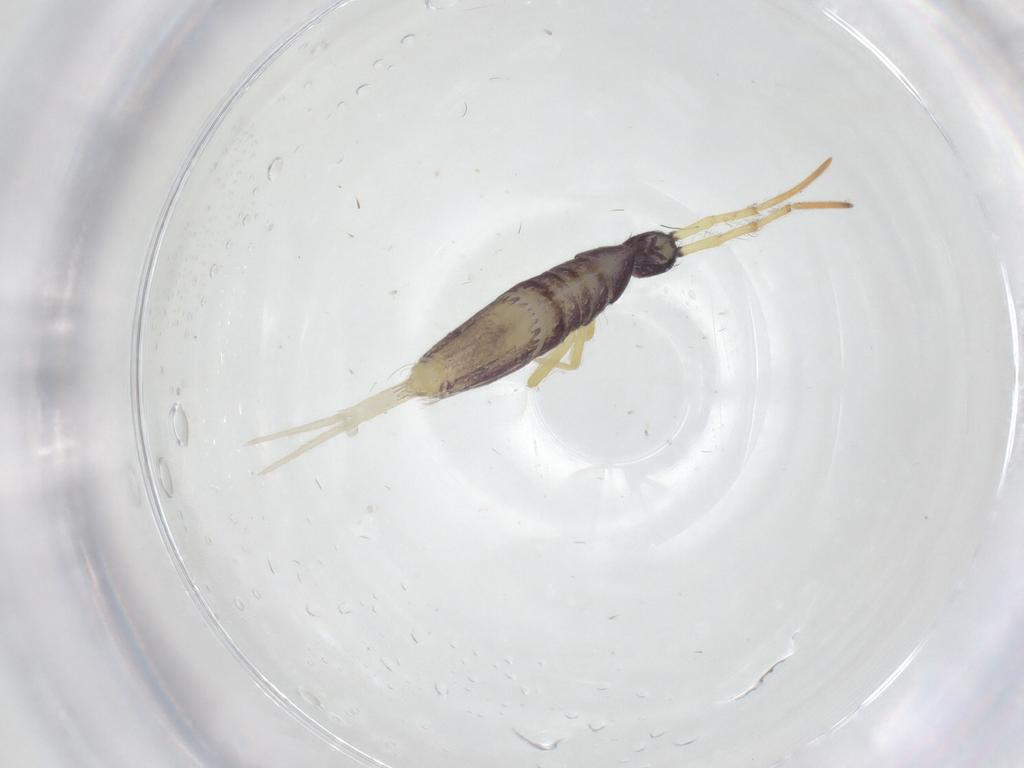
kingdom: Animalia
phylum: Arthropoda
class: Collembola
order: Entomobryomorpha
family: Entomobryidae
